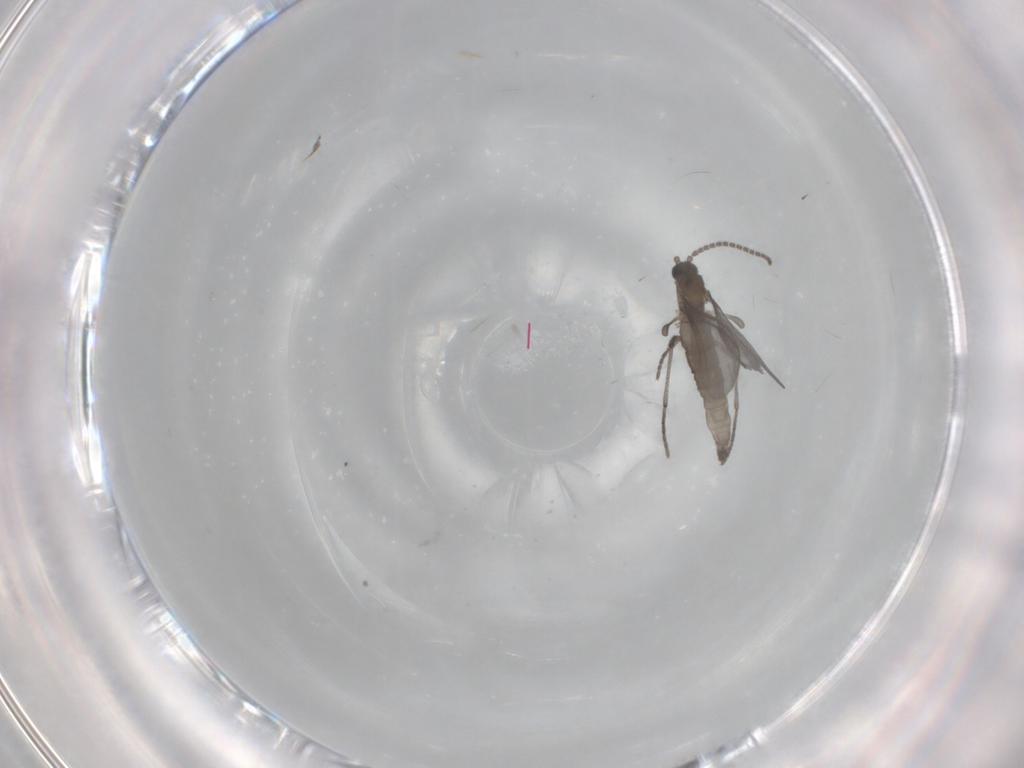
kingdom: Animalia
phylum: Arthropoda
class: Insecta
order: Diptera
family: Sciaridae
